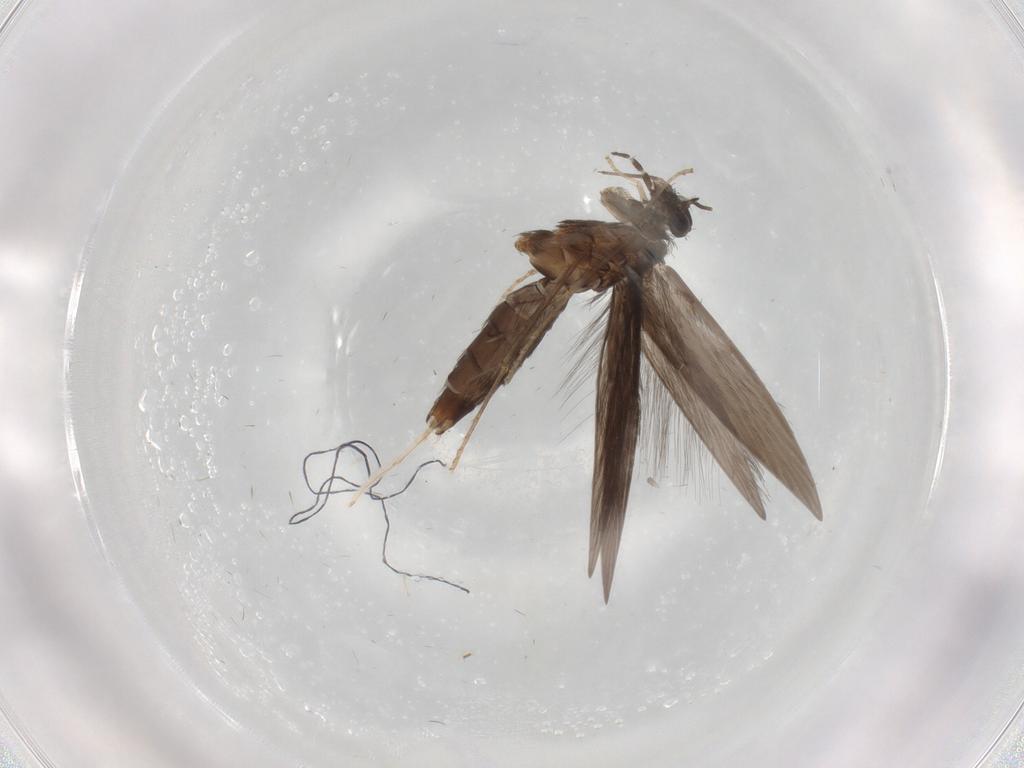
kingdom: Animalia
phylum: Arthropoda
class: Insecta
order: Trichoptera
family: Hydroptilidae
